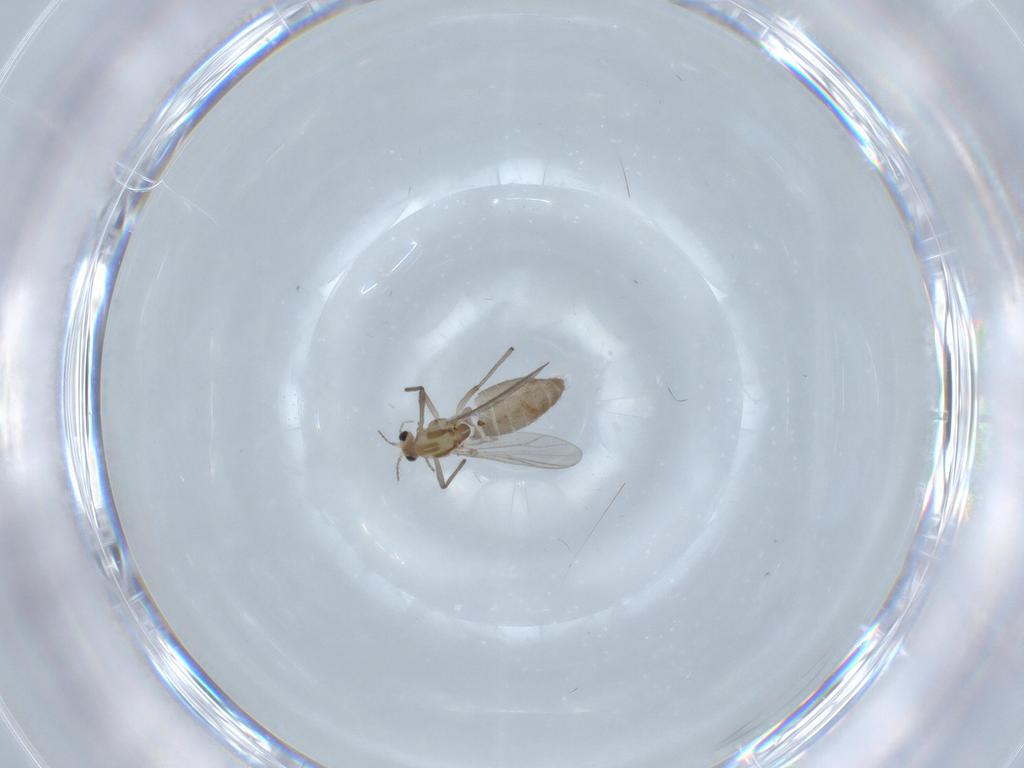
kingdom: Animalia
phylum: Arthropoda
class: Insecta
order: Diptera
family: Chironomidae
